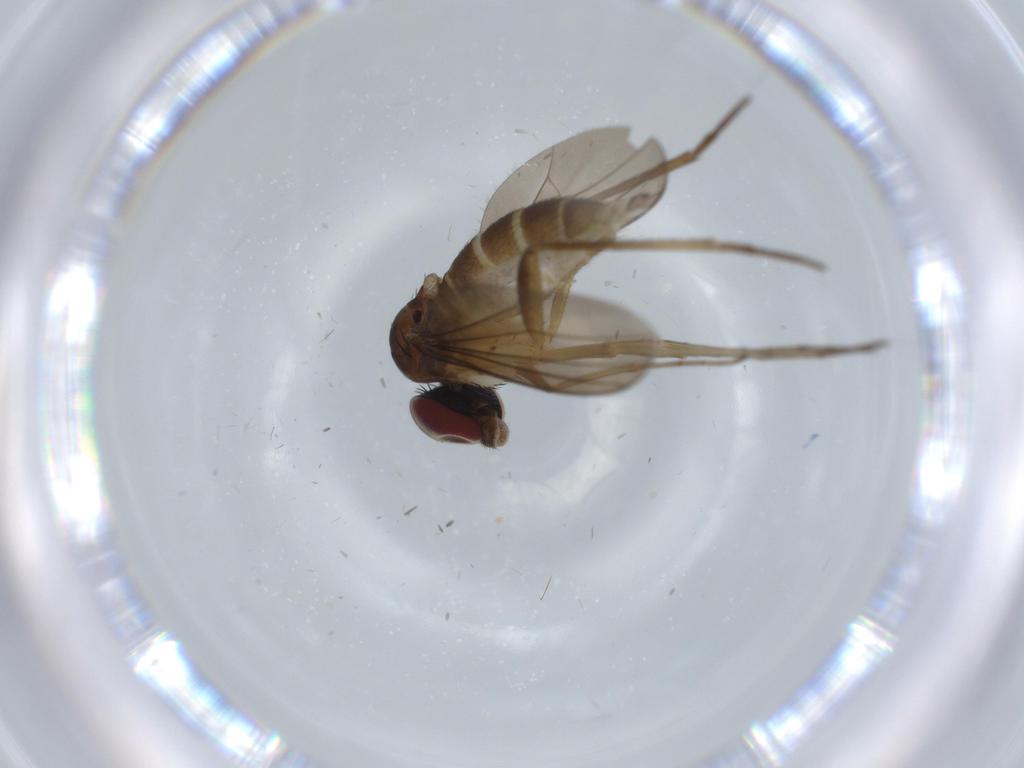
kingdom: Animalia
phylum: Arthropoda
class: Insecta
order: Diptera
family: Dolichopodidae
